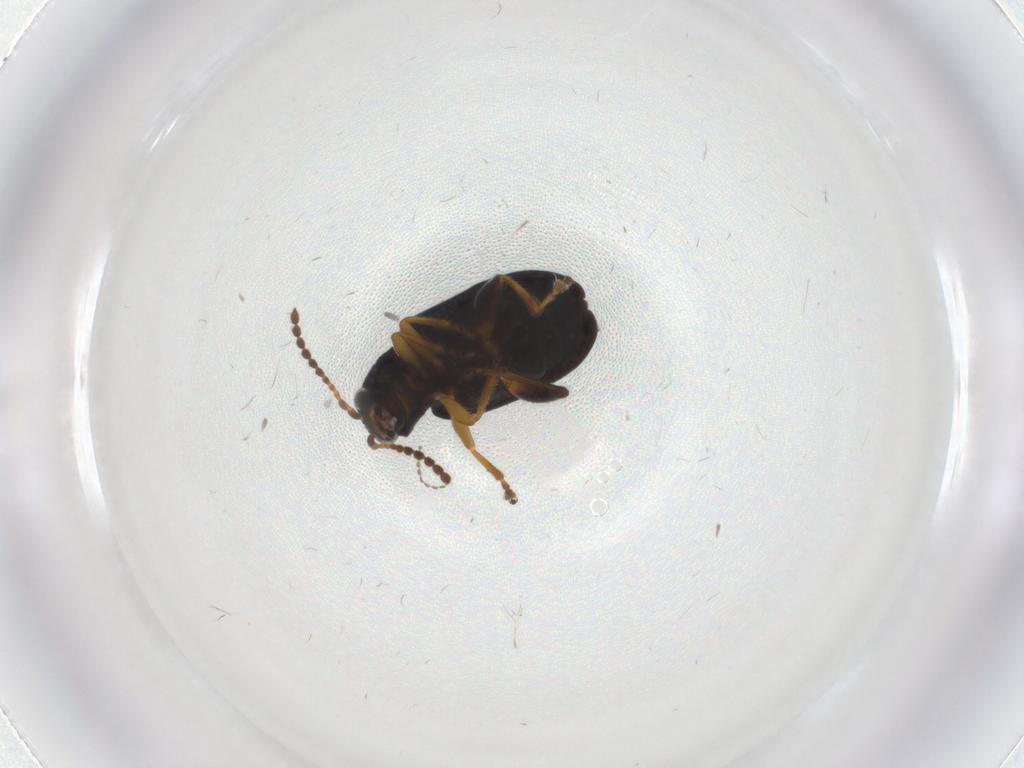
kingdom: Animalia
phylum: Arthropoda
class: Insecta
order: Coleoptera
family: Chrysomelidae
